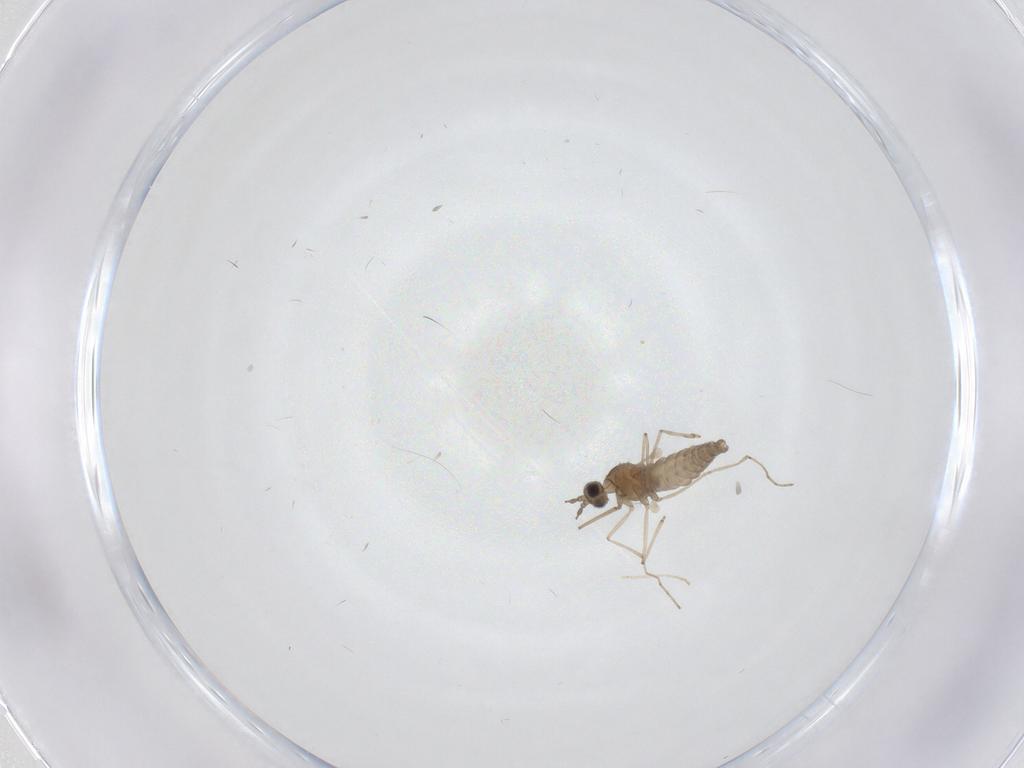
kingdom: Animalia
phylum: Arthropoda
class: Insecta
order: Diptera
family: Cecidomyiidae
